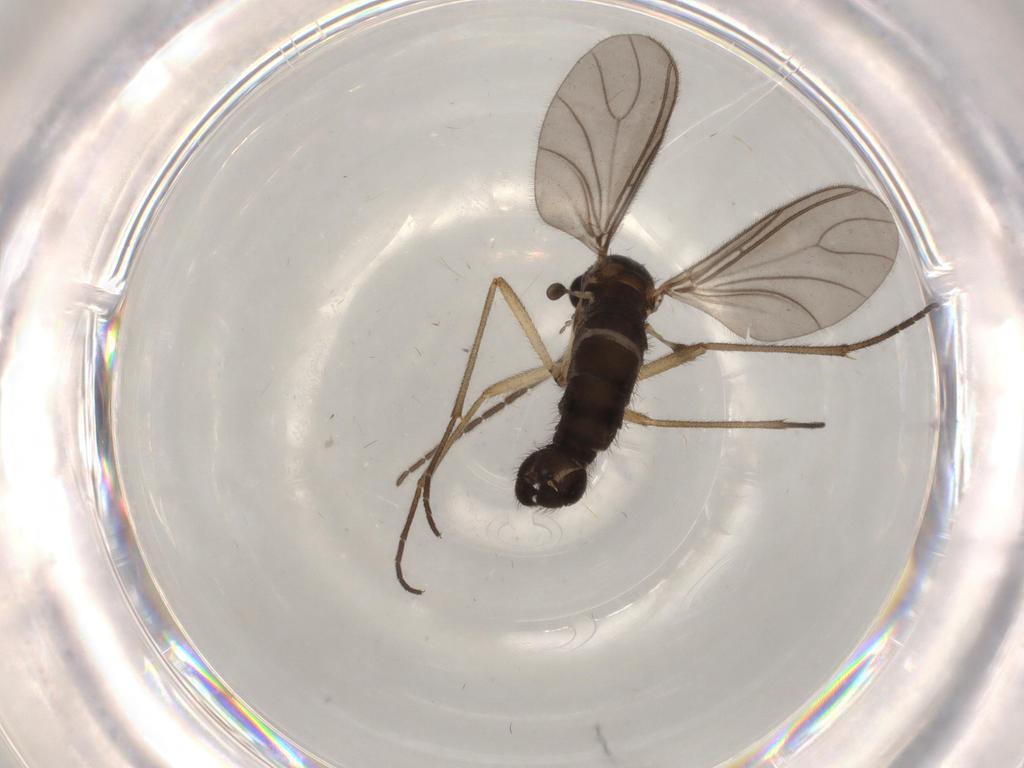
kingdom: Animalia
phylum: Arthropoda
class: Insecta
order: Diptera
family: Sciaridae
